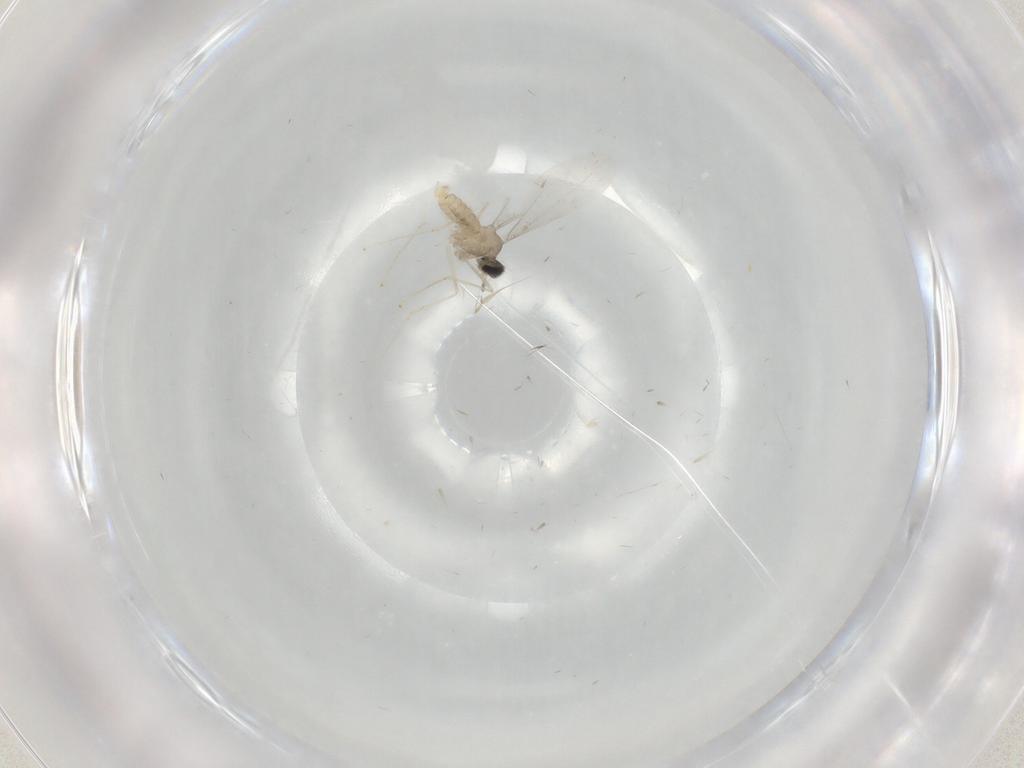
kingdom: Animalia
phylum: Arthropoda
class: Insecta
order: Diptera
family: Cecidomyiidae
